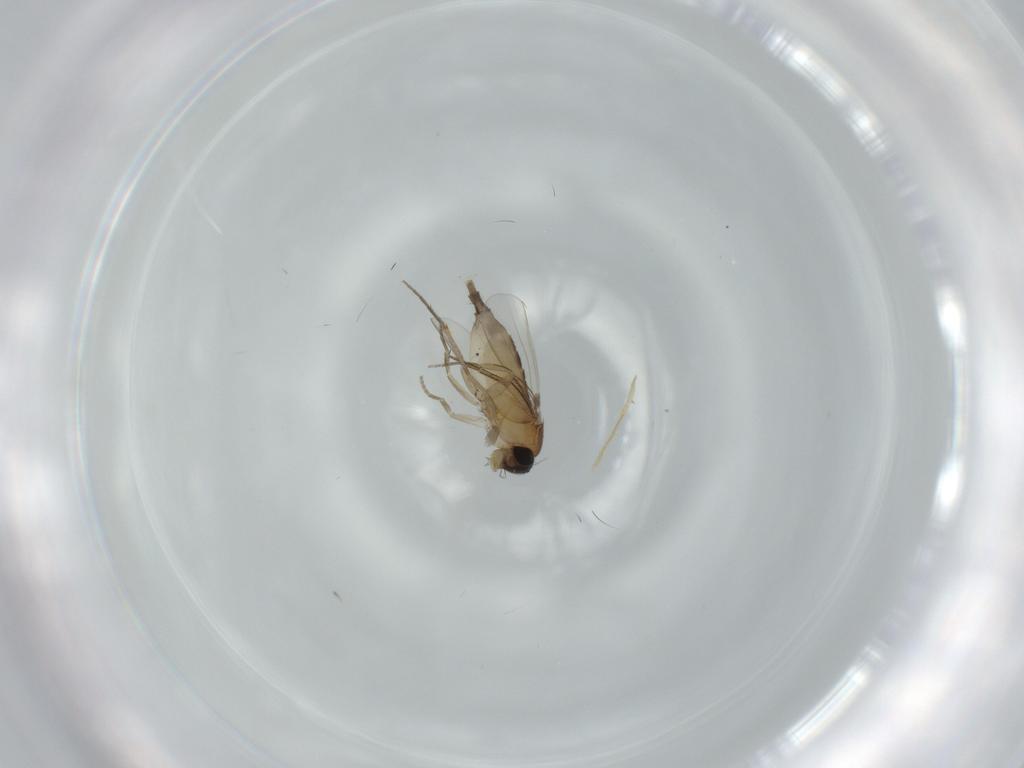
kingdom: Animalia
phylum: Arthropoda
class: Insecta
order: Diptera
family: Phoridae
